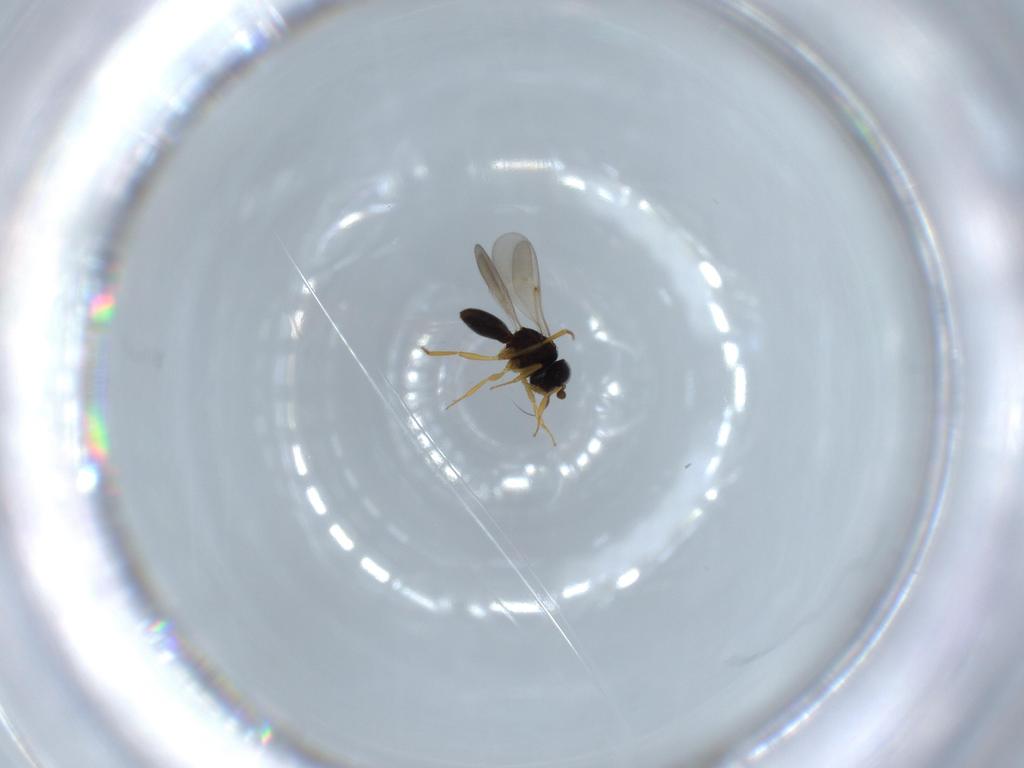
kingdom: Animalia
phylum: Arthropoda
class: Insecta
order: Hymenoptera
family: Scelionidae
